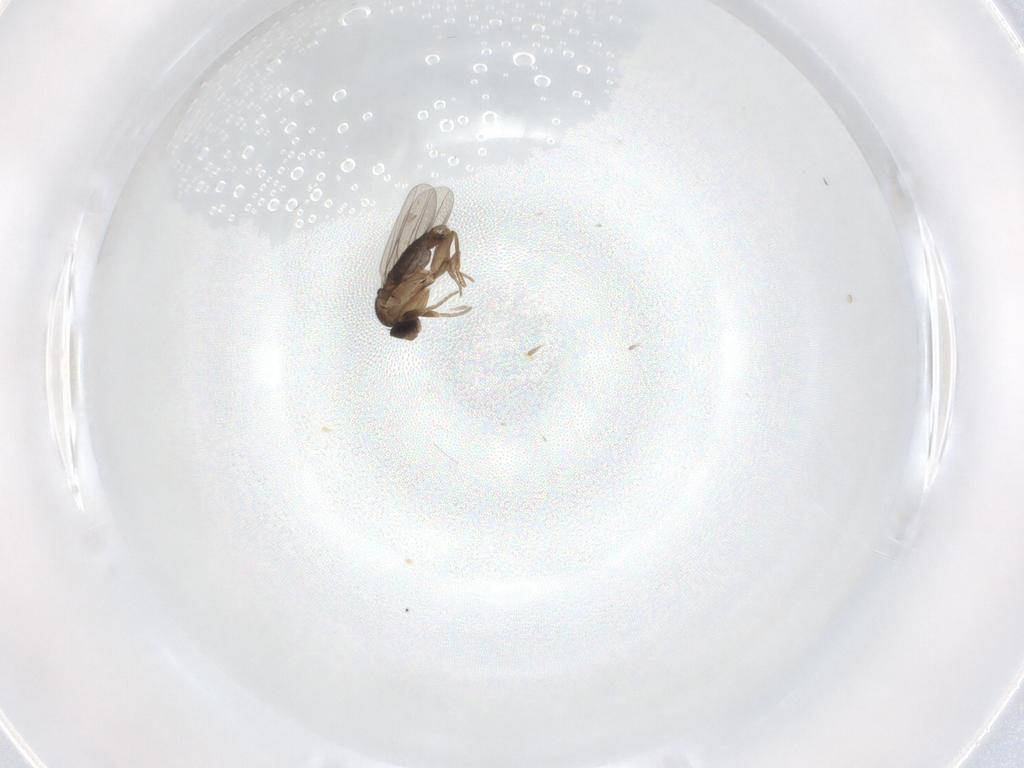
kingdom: Animalia
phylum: Arthropoda
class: Insecta
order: Diptera
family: Phoridae
